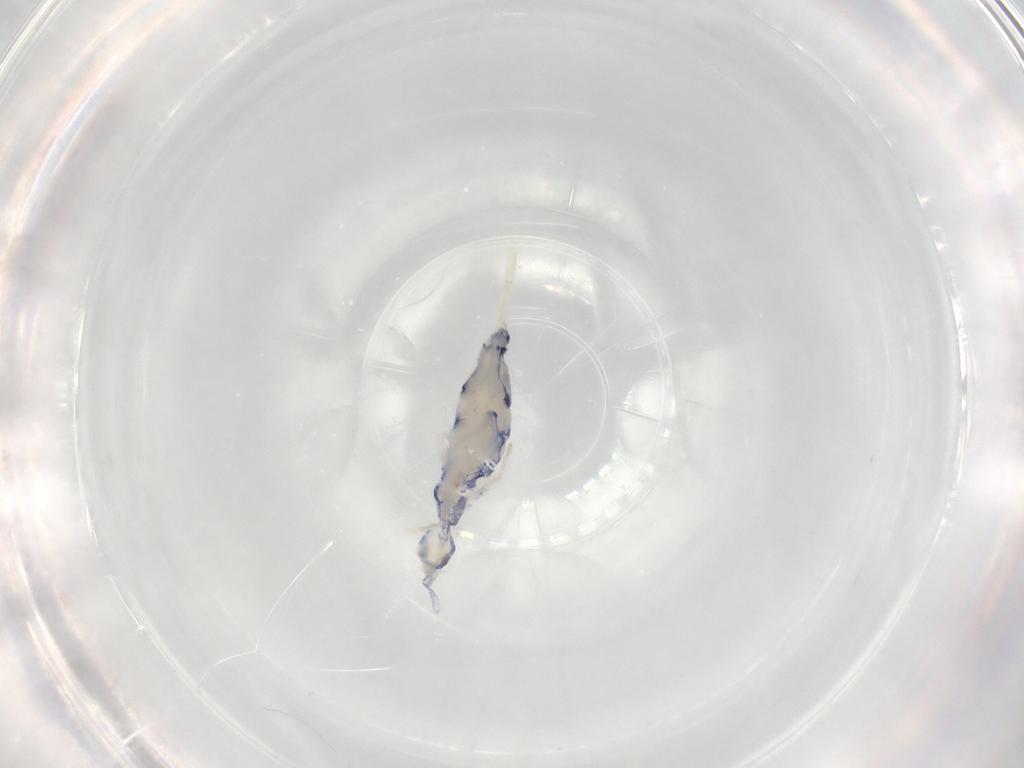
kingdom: Animalia
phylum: Arthropoda
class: Collembola
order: Entomobryomorpha
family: Entomobryidae
